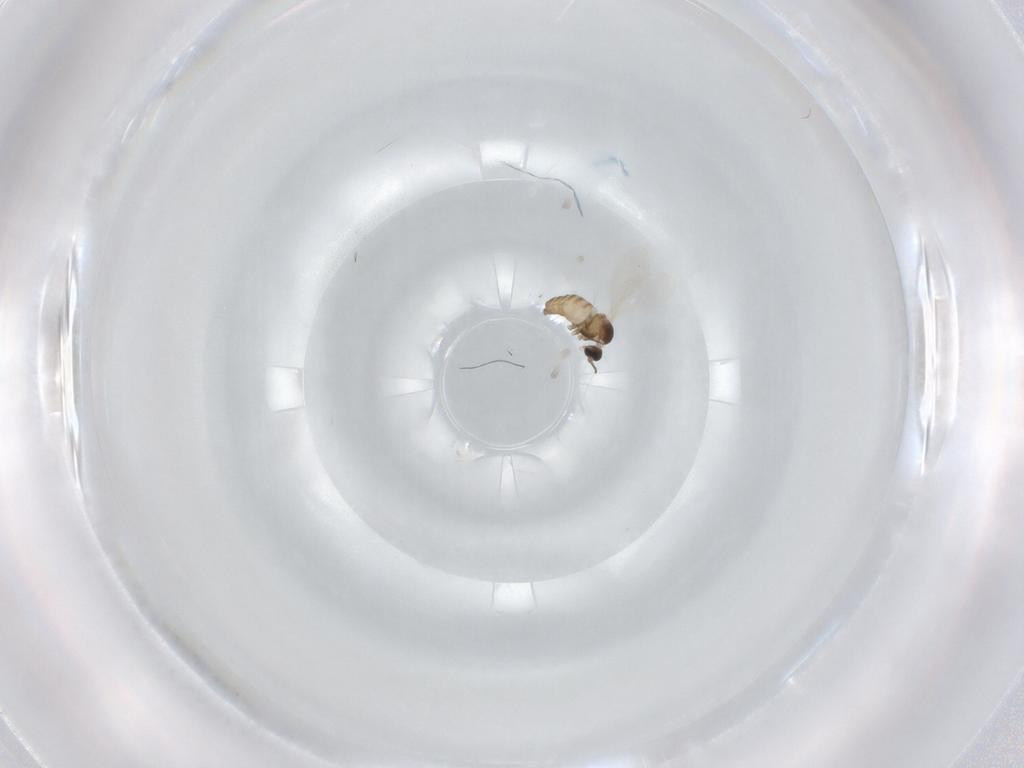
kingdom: Animalia
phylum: Arthropoda
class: Insecta
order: Diptera
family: Cecidomyiidae
